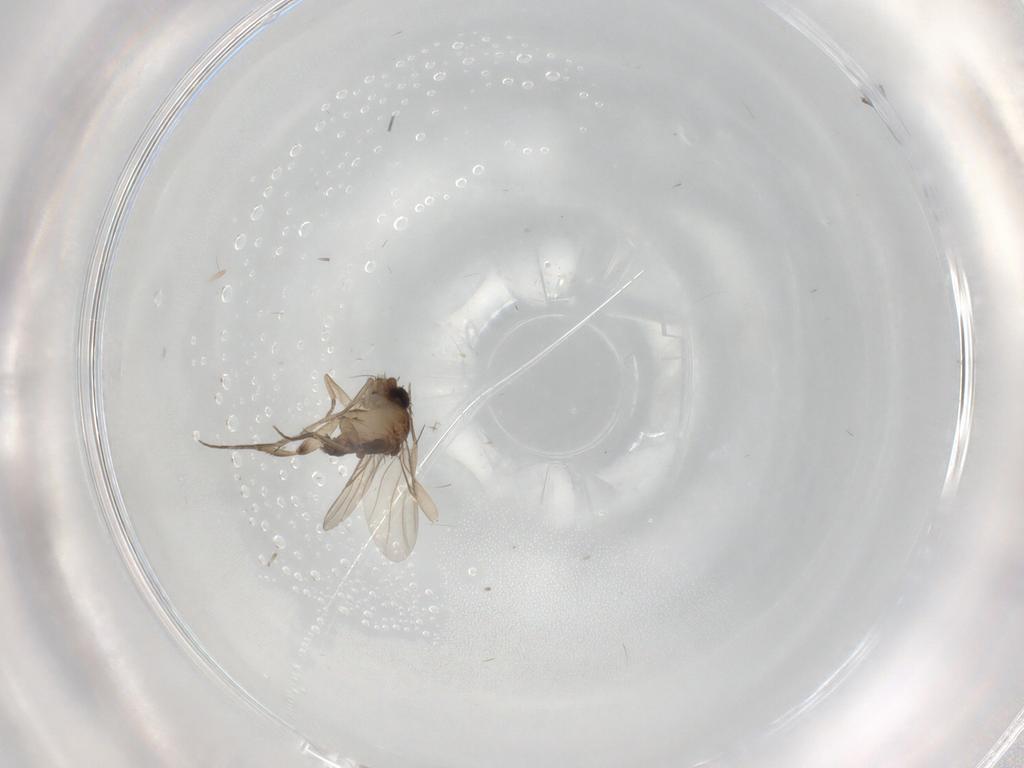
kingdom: Animalia
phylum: Arthropoda
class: Insecta
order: Diptera
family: Phoridae
